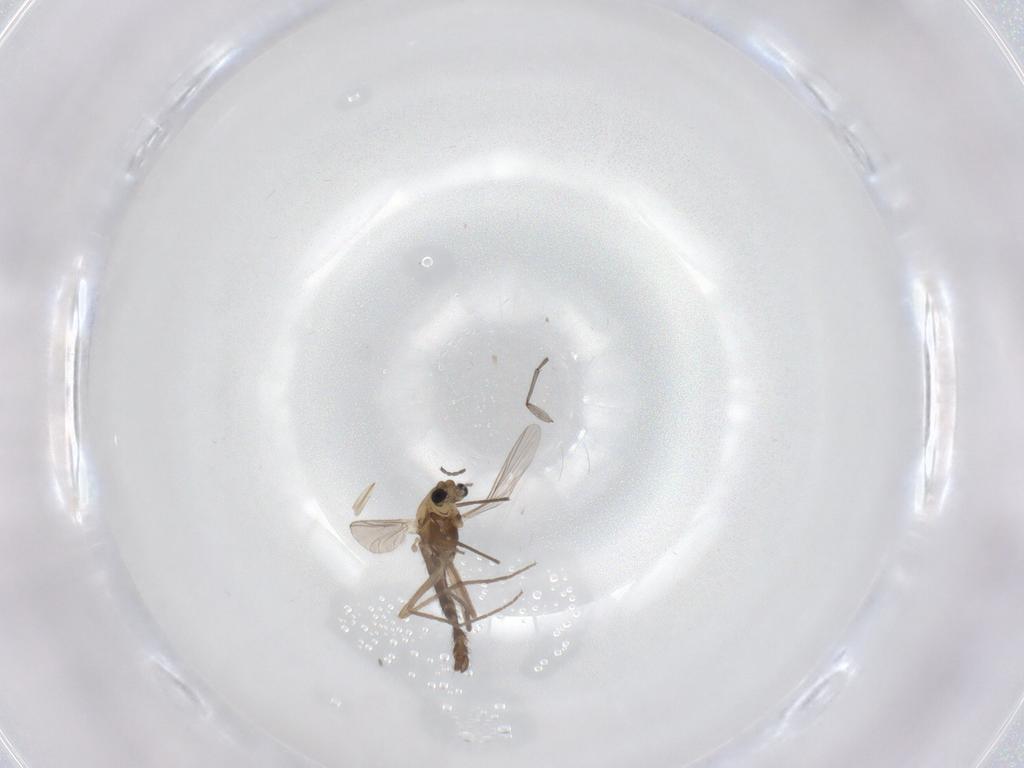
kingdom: Animalia
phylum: Arthropoda
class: Insecta
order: Diptera
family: Chironomidae
